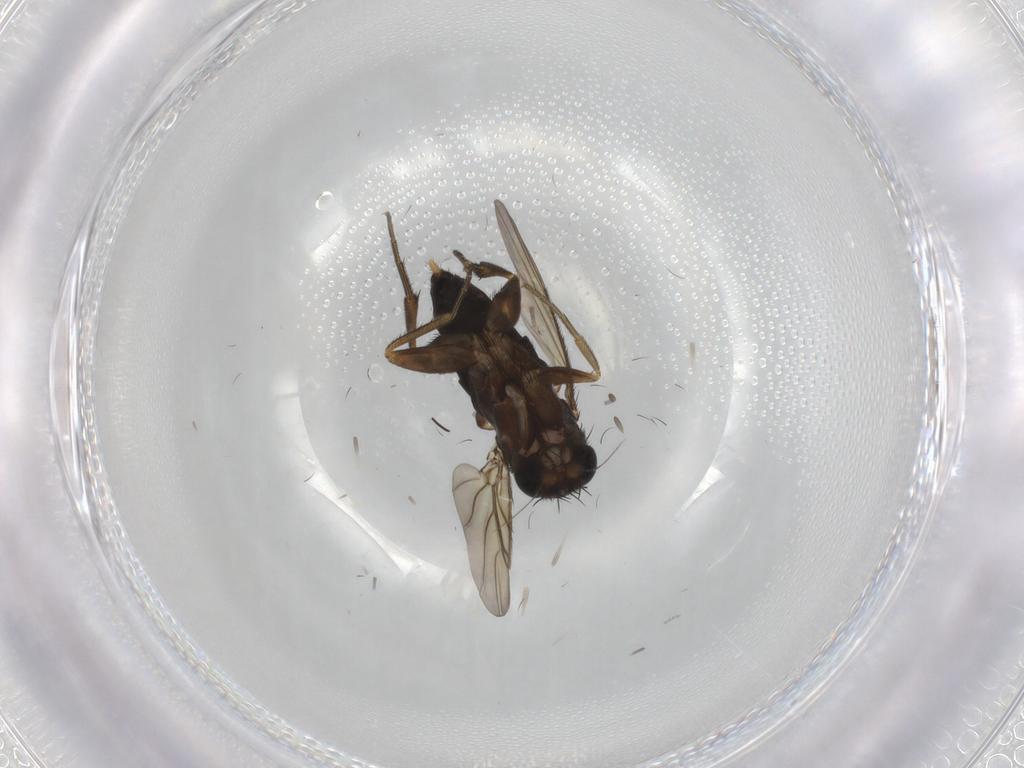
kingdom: Animalia
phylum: Arthropoda
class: Insecta
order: Diptera
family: Phoridae
